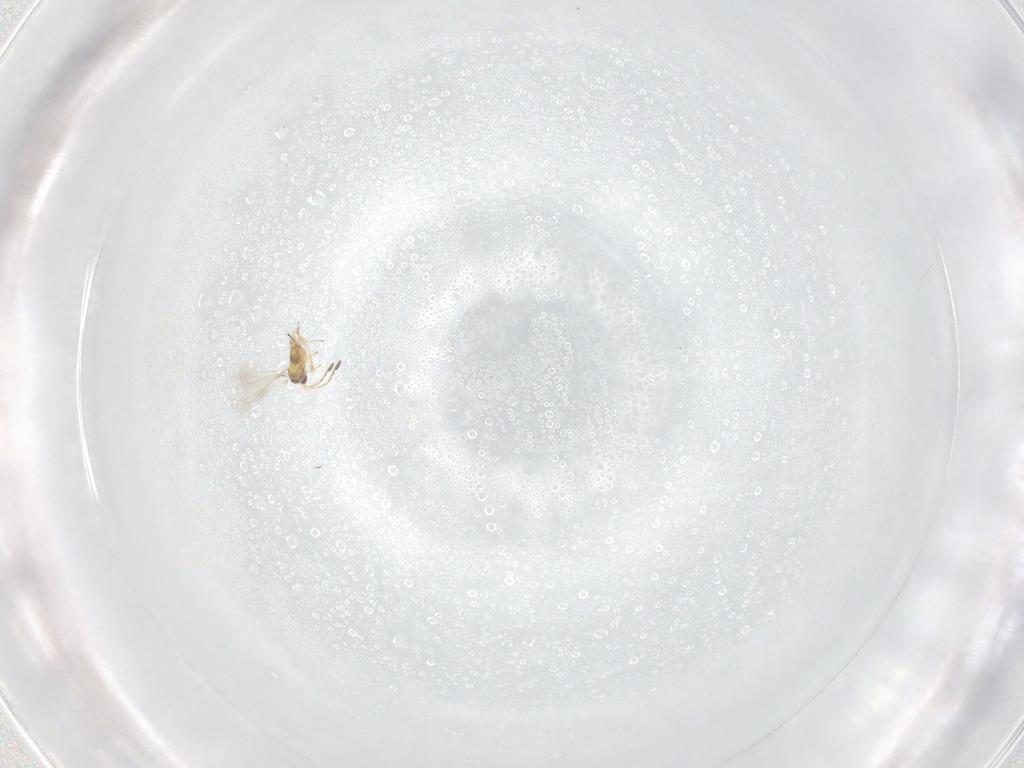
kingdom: Animalia
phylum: Arthropoda
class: Insecta
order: Hymenoptera
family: Mymaridae
